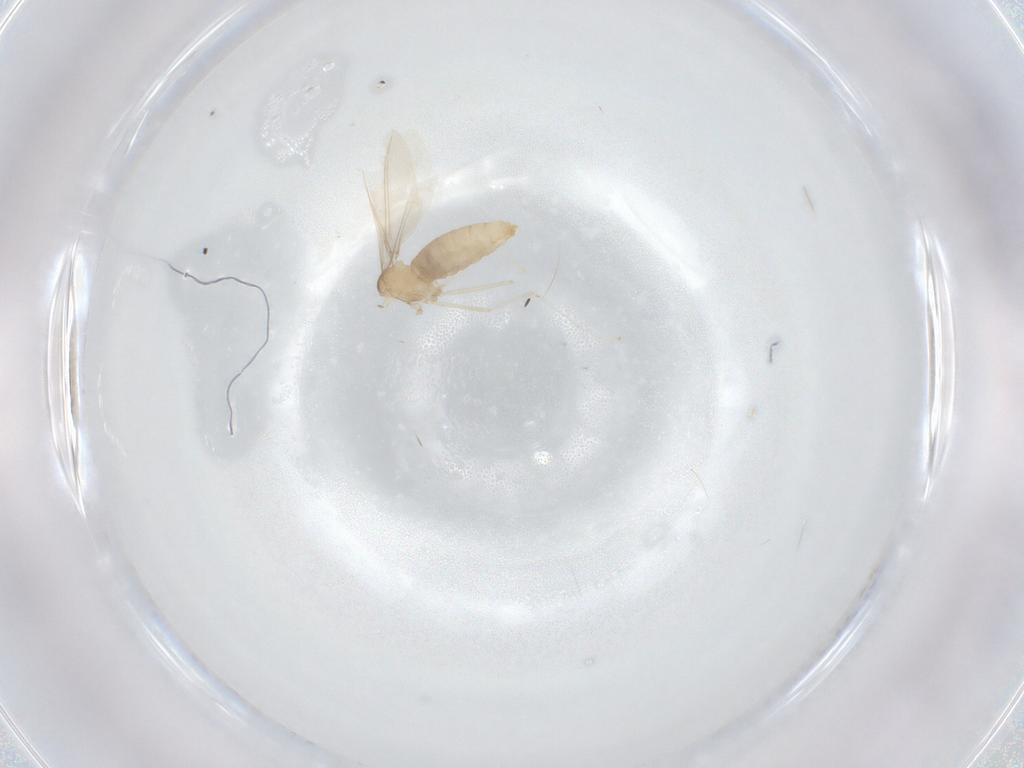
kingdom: Animalia
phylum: Arthropoda
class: Insecta
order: Diptera
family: Cecidomyiidae
